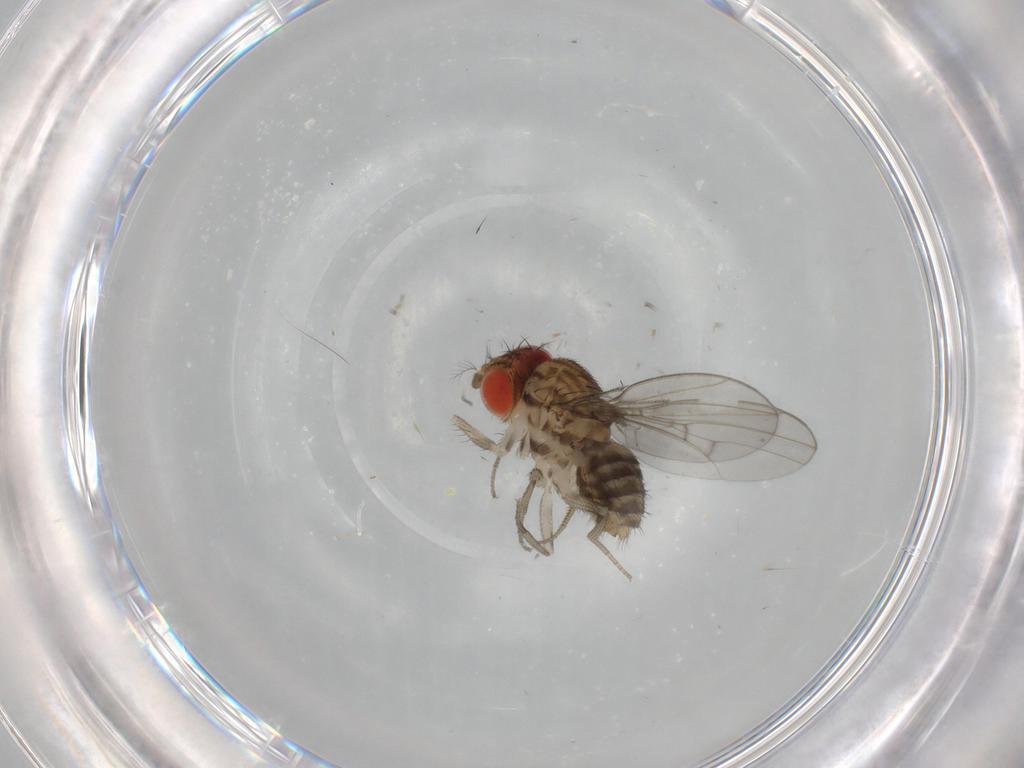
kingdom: Animalia
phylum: Arthropoda
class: Insecta
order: Diptera
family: Drosophilidae
